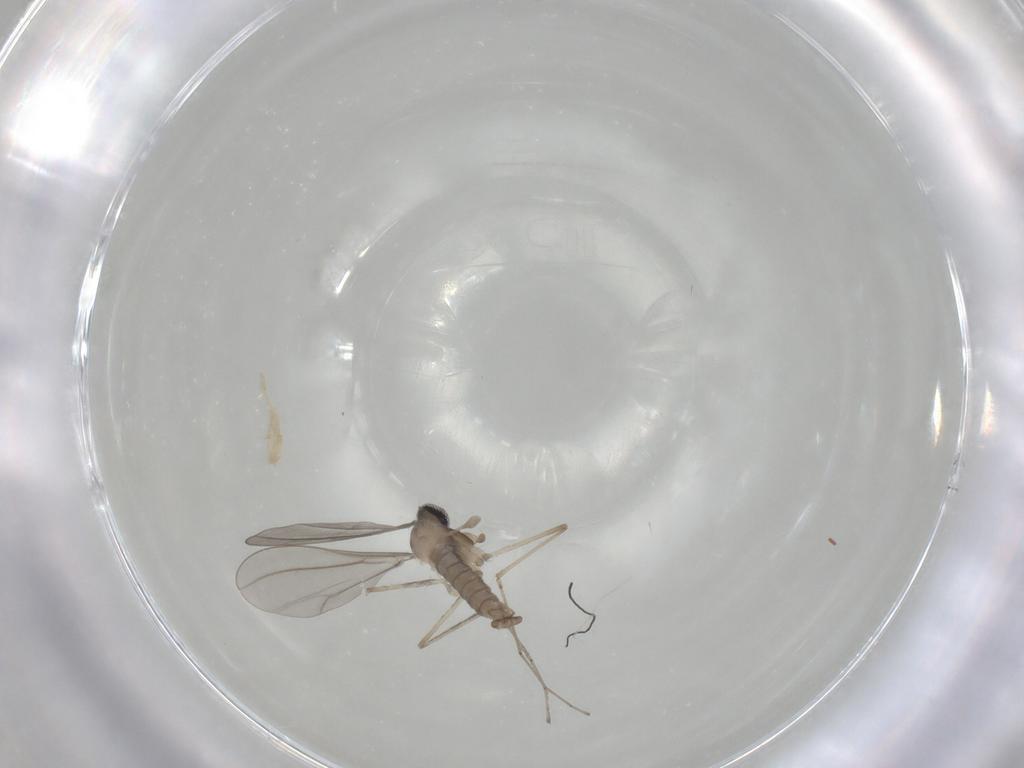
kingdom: Animalia
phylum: Arthropoda
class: Insecta
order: Diptera
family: Cecidomyiidae
